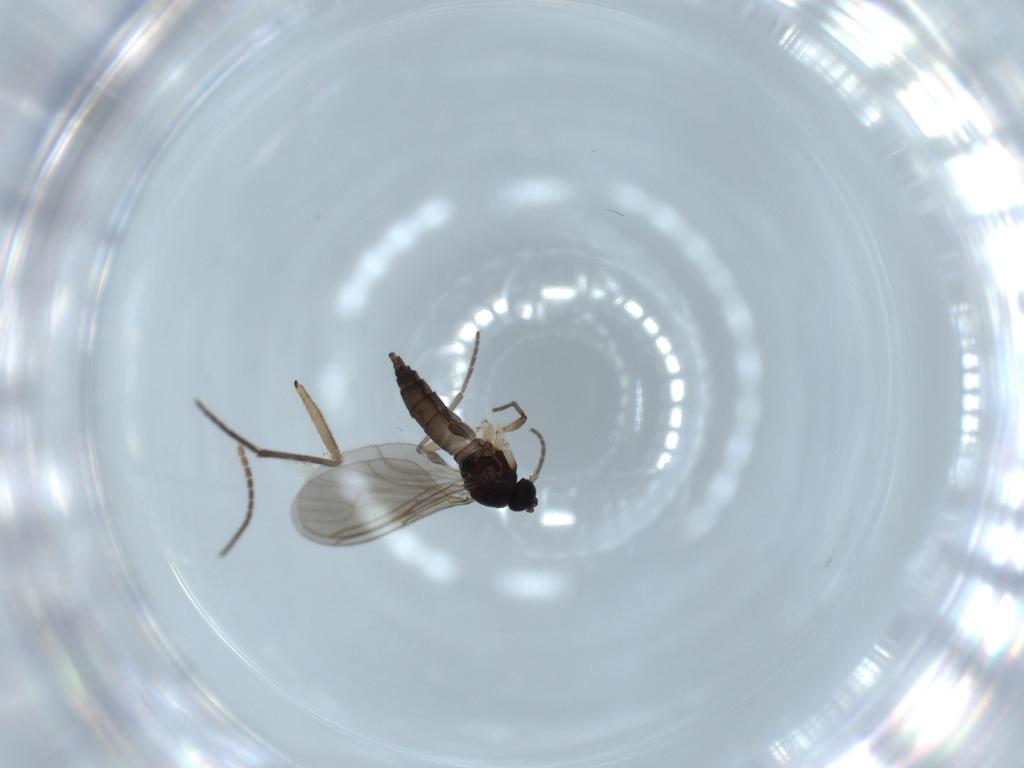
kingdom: Animalia
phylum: Arthropoda
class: Insecta
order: Diptera
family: Sciaridae
